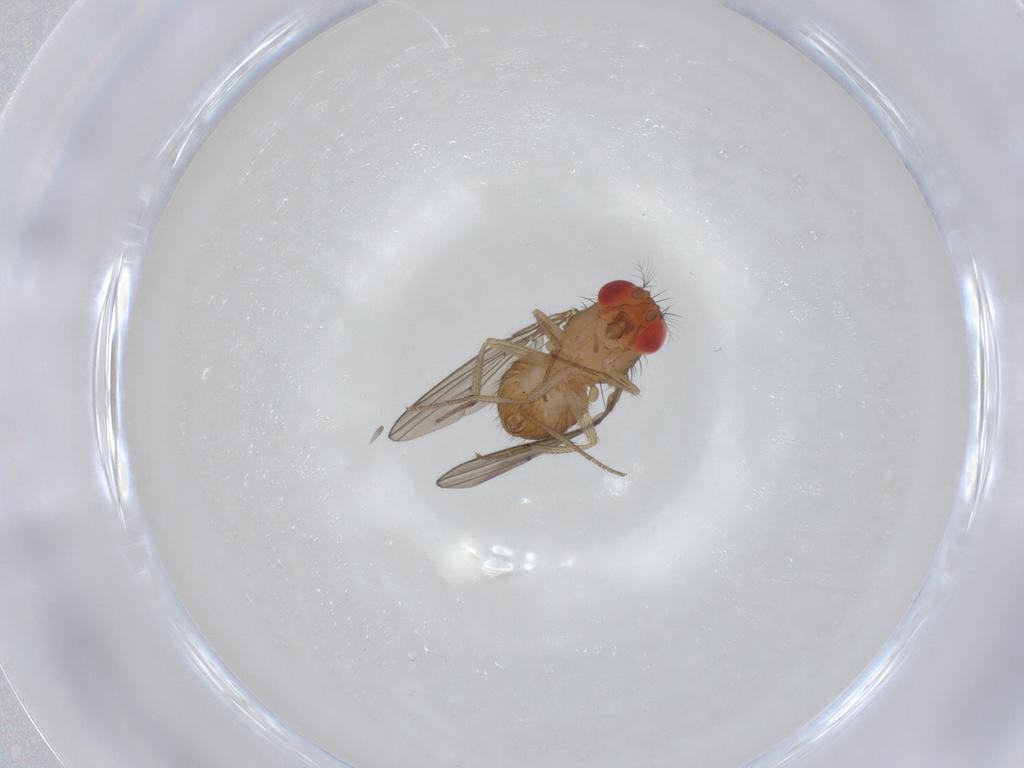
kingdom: Animalia
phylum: Arthropoda
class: Insecta
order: Diptera
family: Drosophilidae
